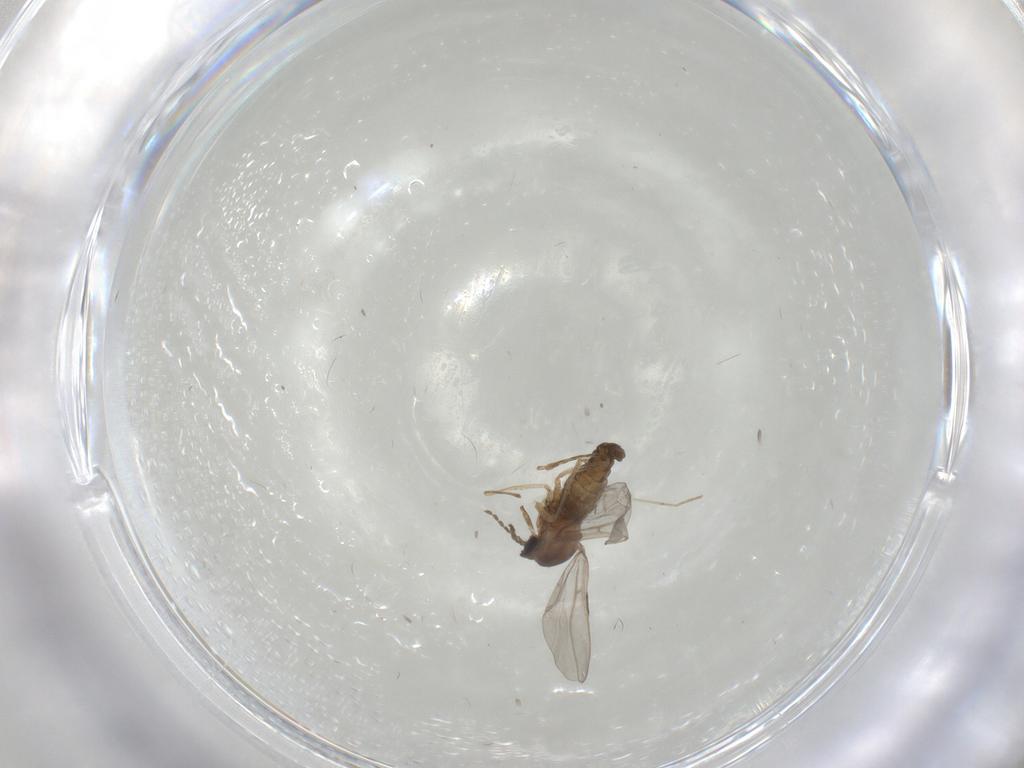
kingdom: Animalia
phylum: Arthropoda
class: Insecta
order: Diptera
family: Cecidomyiidae
